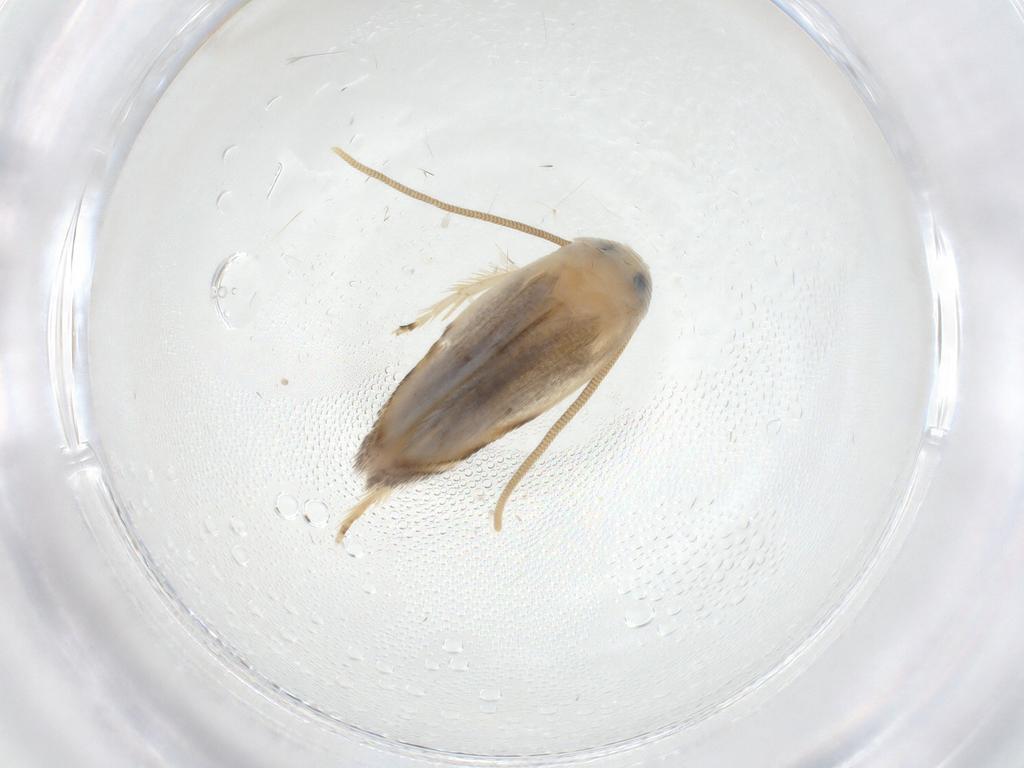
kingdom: Animalia
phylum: Arthropoda
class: Insecta
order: Lepidoptera
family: Opostegidae
